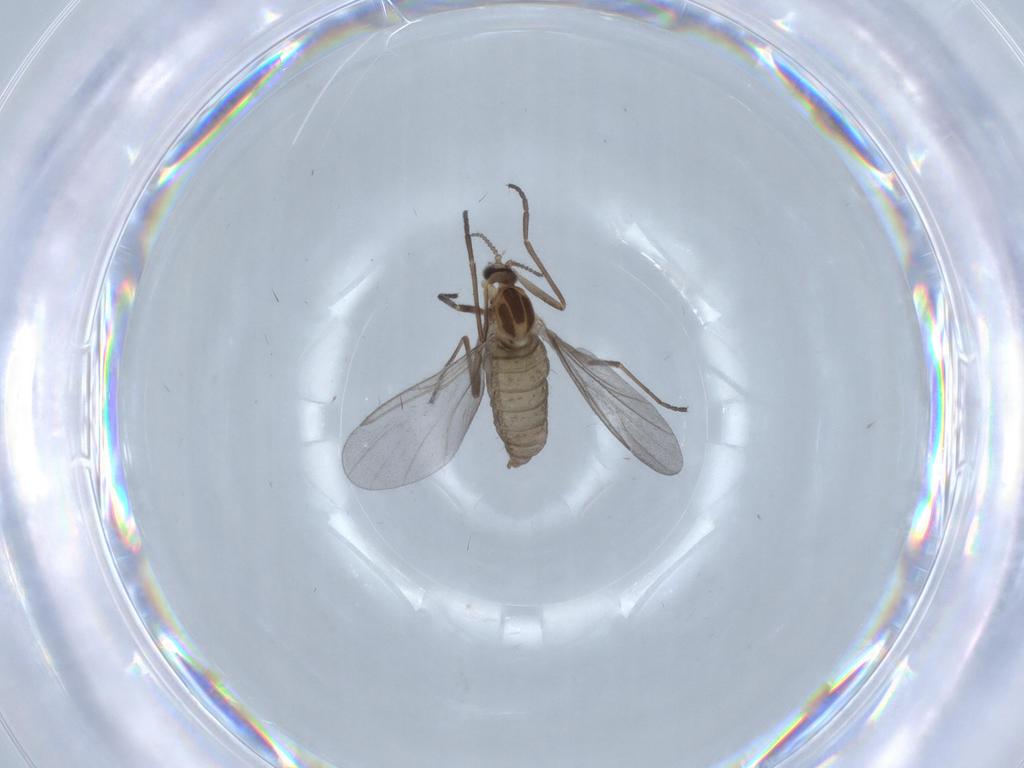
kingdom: Animalia
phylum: Arthropoda
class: Insecta
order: Diptera
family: Cecidomyiidae
